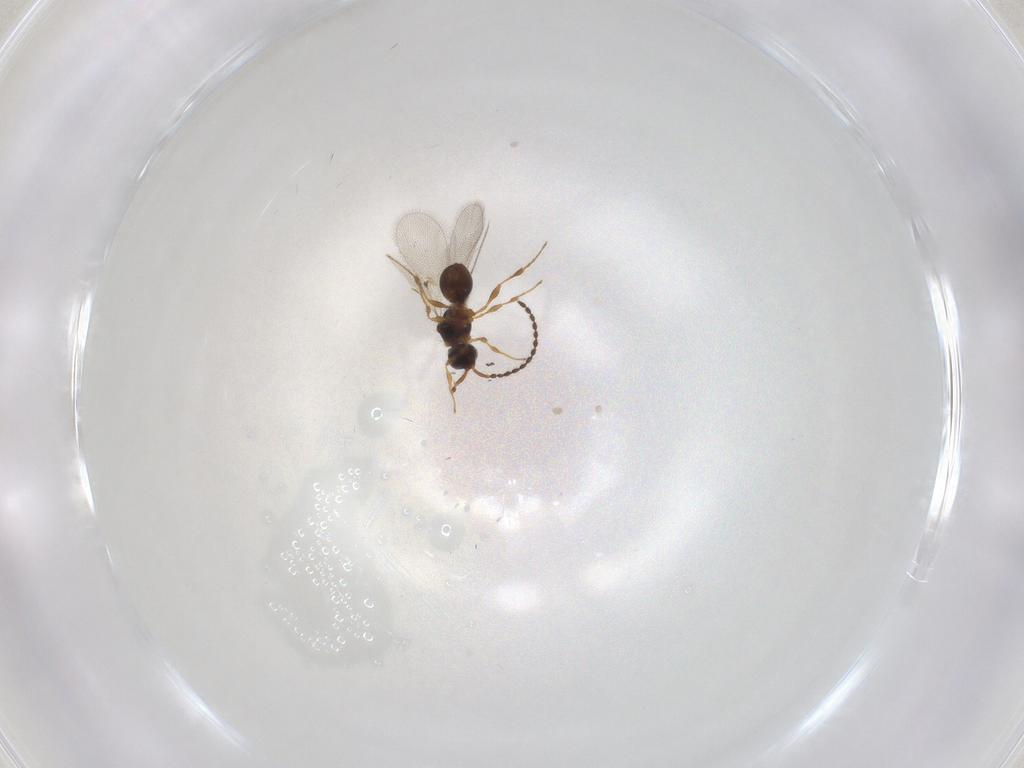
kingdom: Animalia
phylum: Arthropoda
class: Insecta
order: Hymenoptera
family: Diapriidae
